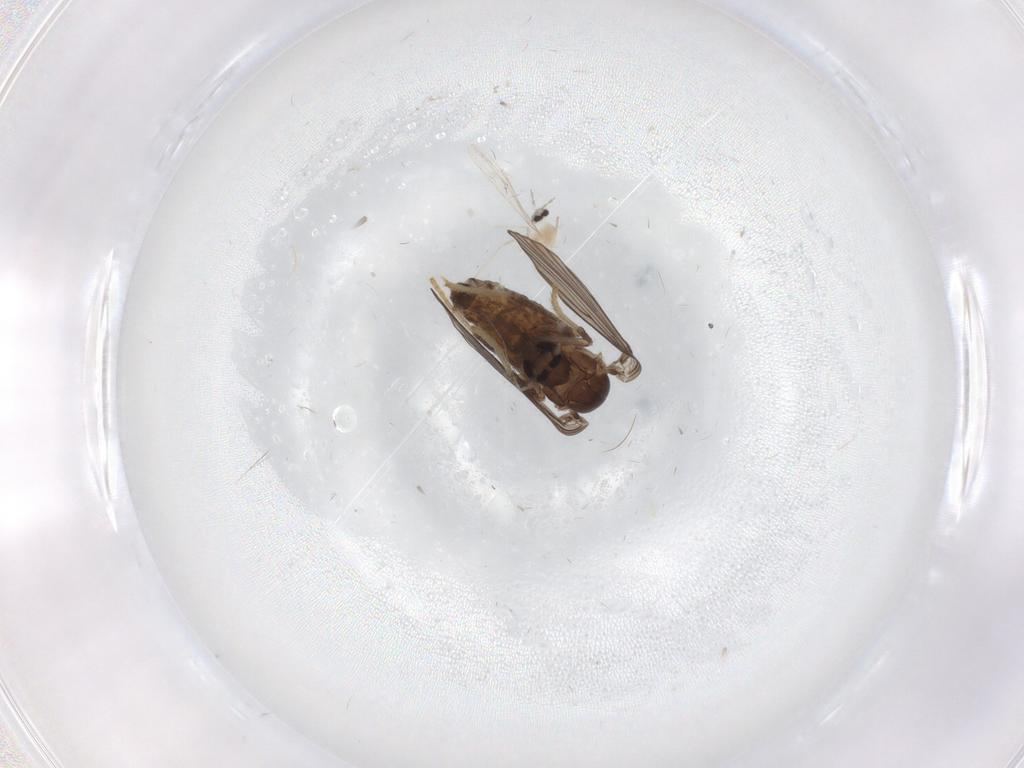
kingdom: Animalia
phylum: Arthropoda
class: Insecta
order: Diptera
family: Psychodidae
